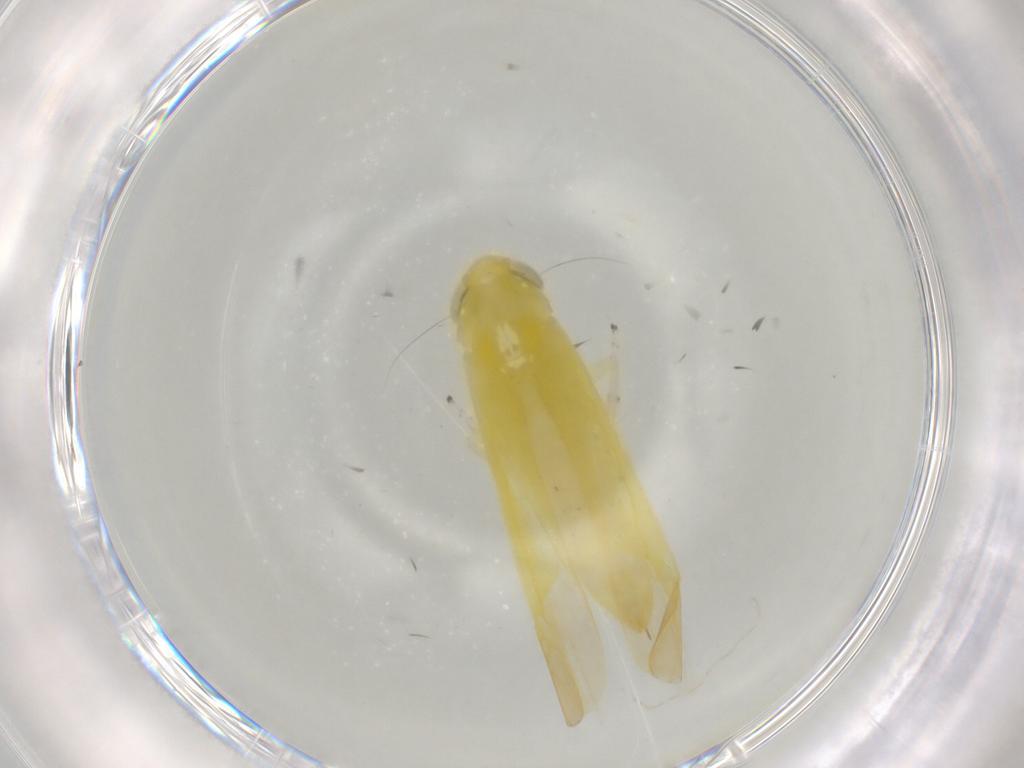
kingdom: Animalia
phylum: Arthropoda
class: Insecta
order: Hemiptera
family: Cicadellidae
